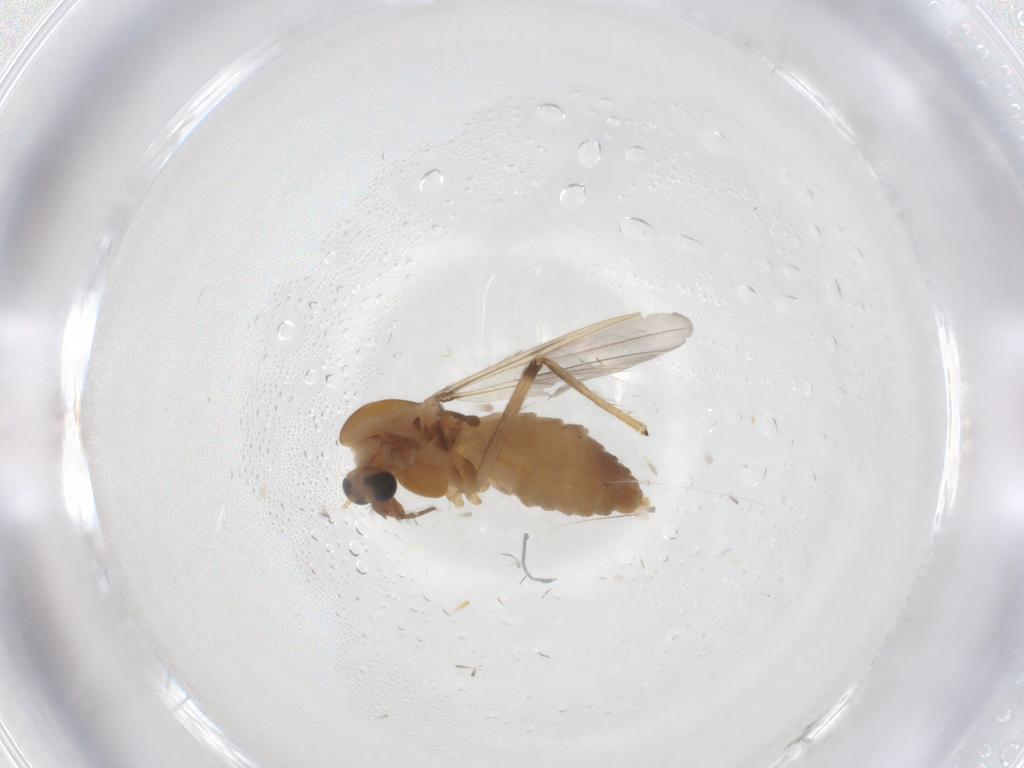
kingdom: Animalia
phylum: Arthropoda
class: Insecta
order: Diptera
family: Chironomidae
